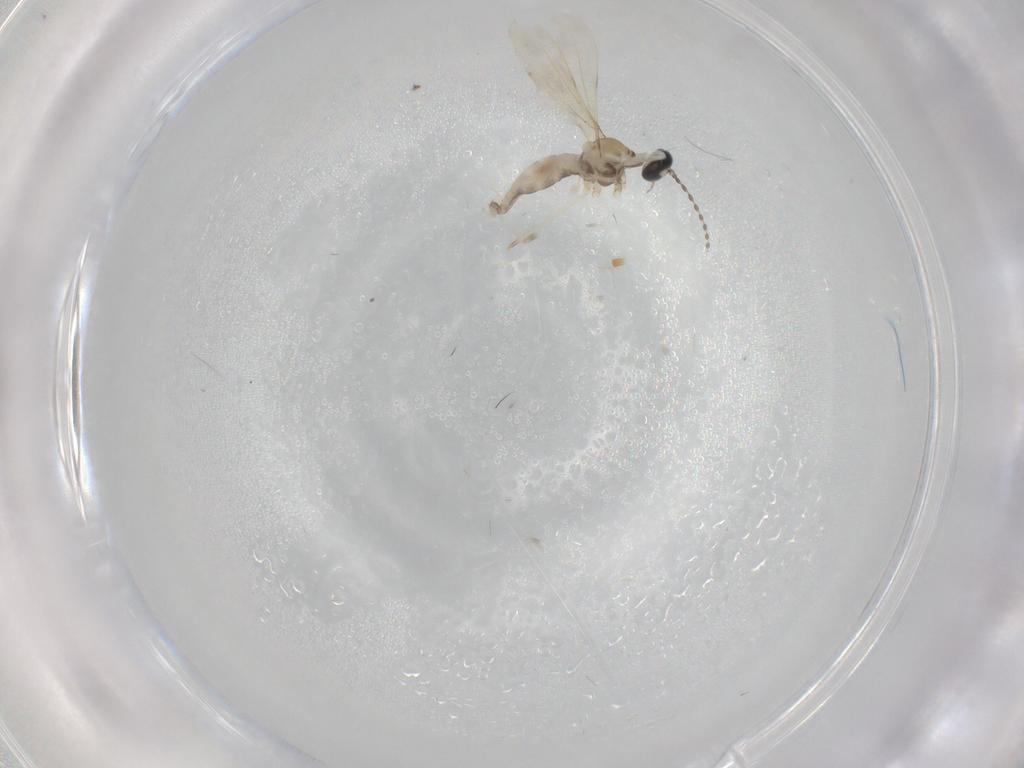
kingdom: Animalia
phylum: Arthropoda
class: Insecta
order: Diptera
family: Cecidomyiidae
